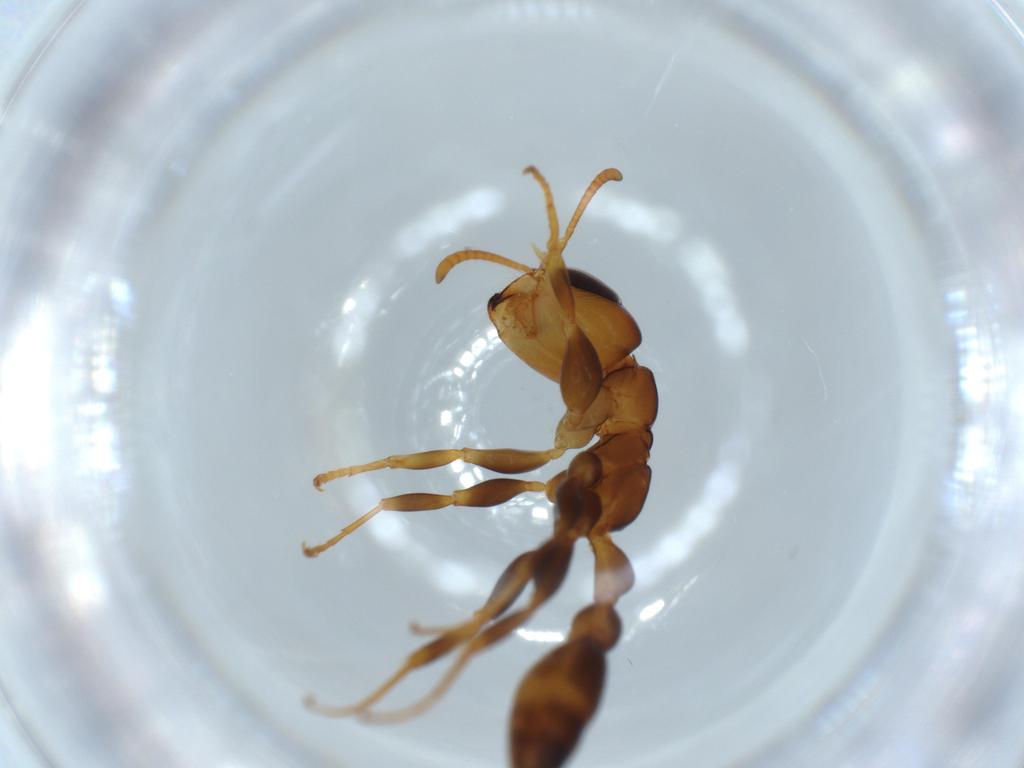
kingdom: Animalia
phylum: Arthropoda
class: Insecta
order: Hymenoptera
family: Formicidae
